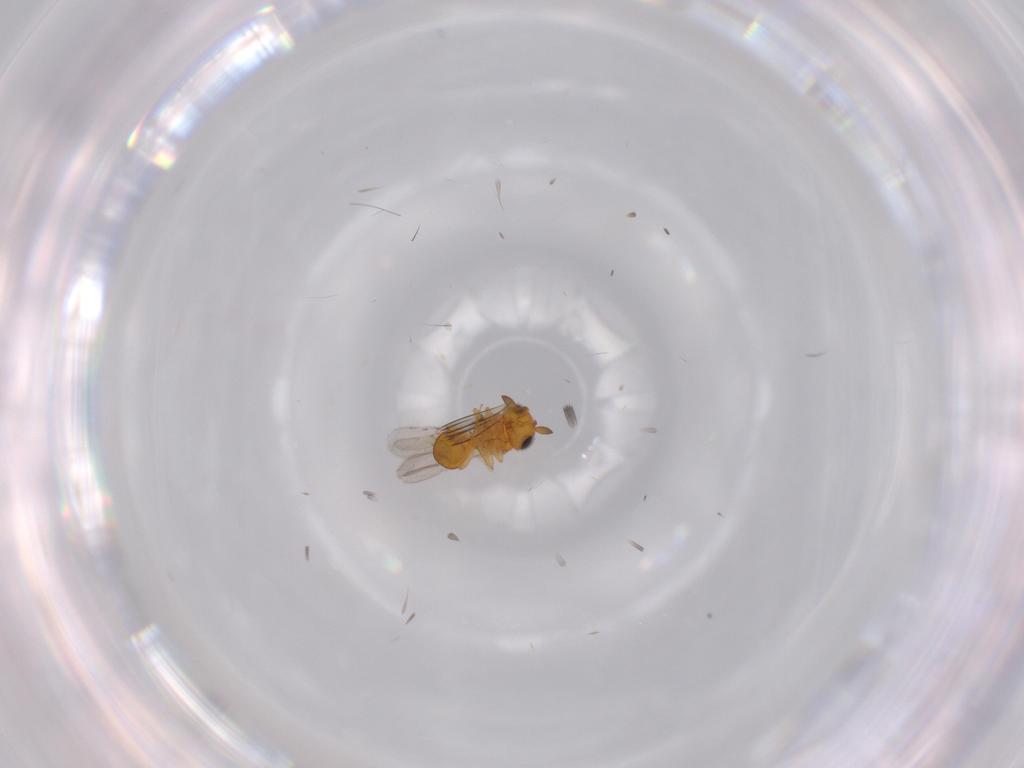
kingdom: Animalia
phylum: Arthropoda
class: Insecta
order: Hymenoptera
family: Scelionidae
